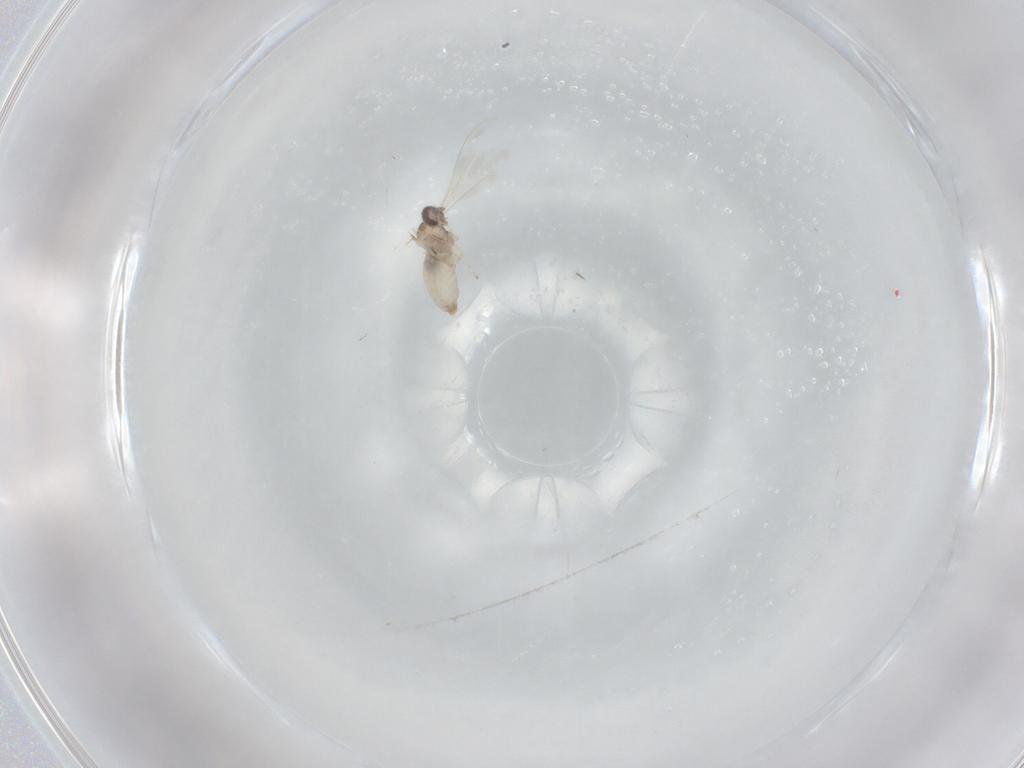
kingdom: Animalia
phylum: Arthropoda
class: Insecta
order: Diptera
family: Cecidomyiidae
